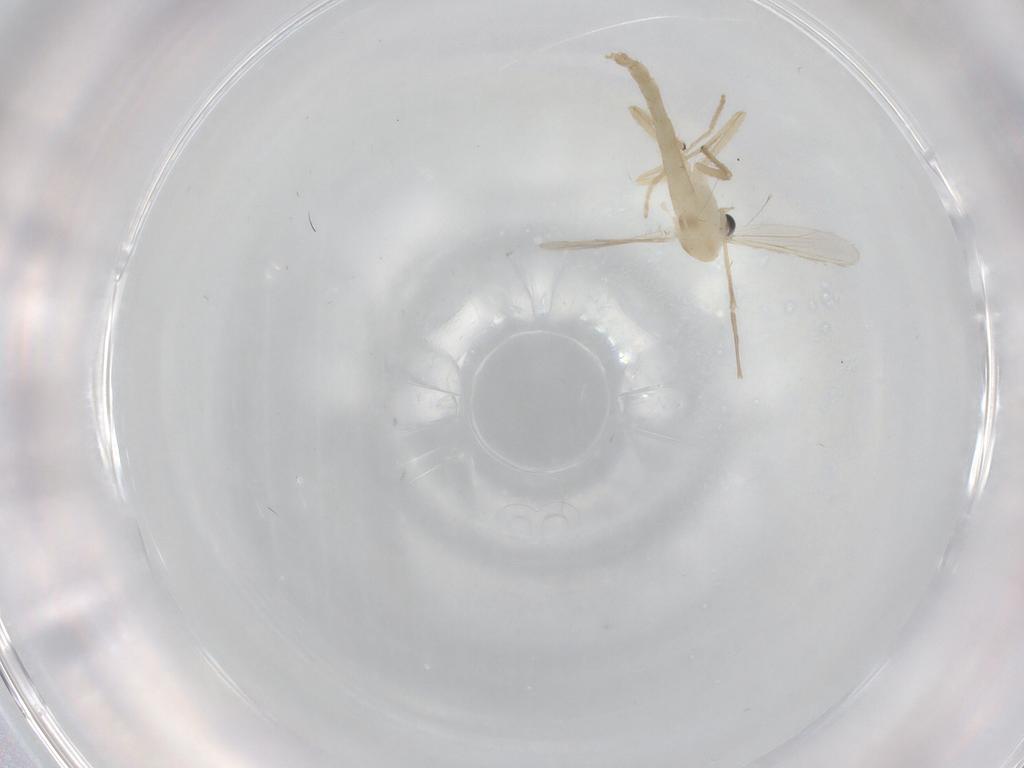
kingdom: Animalia
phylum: Arthropoda
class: Insecta
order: Diptera
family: Chironomidae
